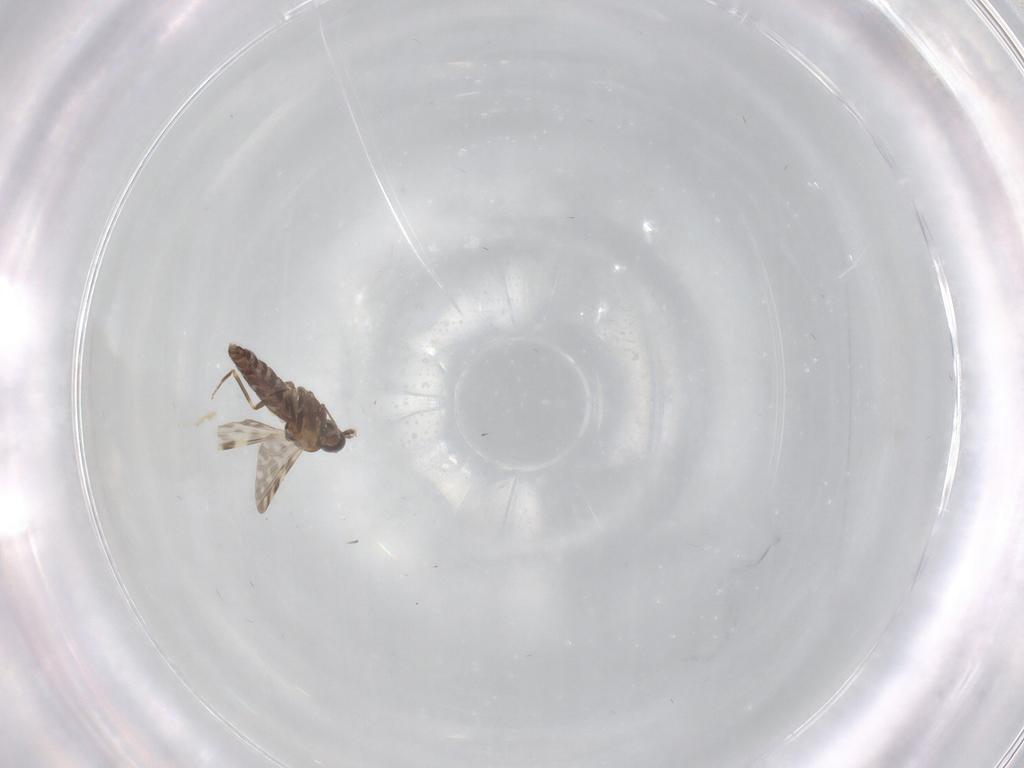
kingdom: Animalia
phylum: Arthropoda
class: Insecta
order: Diptera
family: Ceratopogonidae
